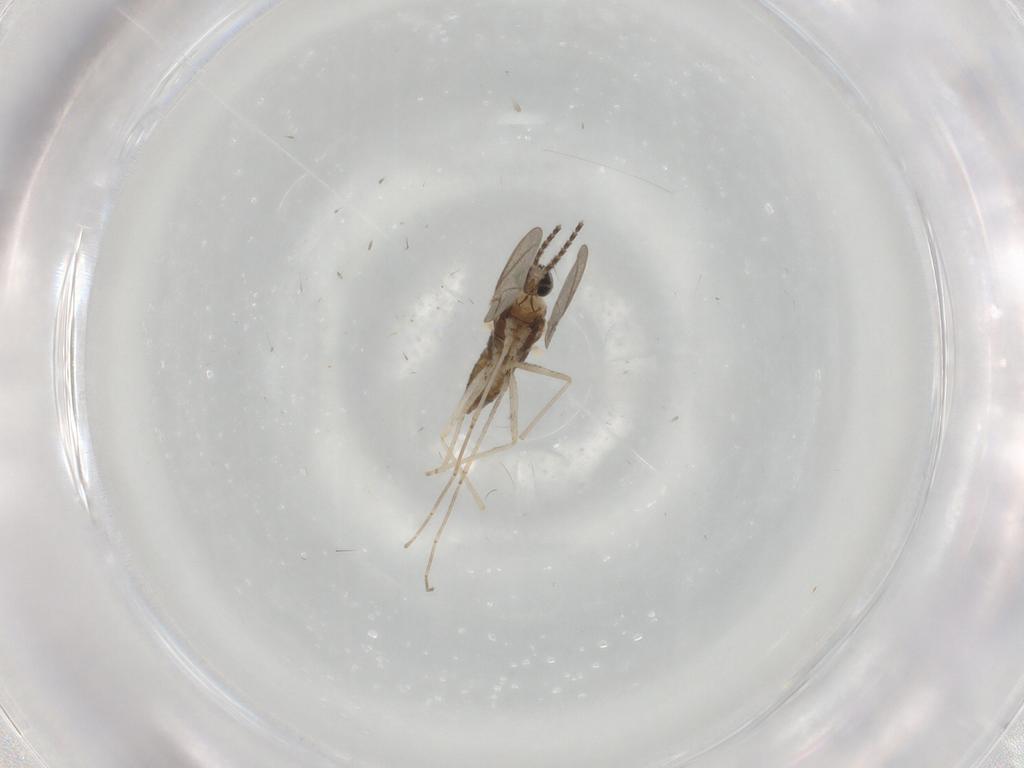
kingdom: Animalia
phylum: Arthropoda
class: Insecta
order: Diptera
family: Cecidomyiidae
